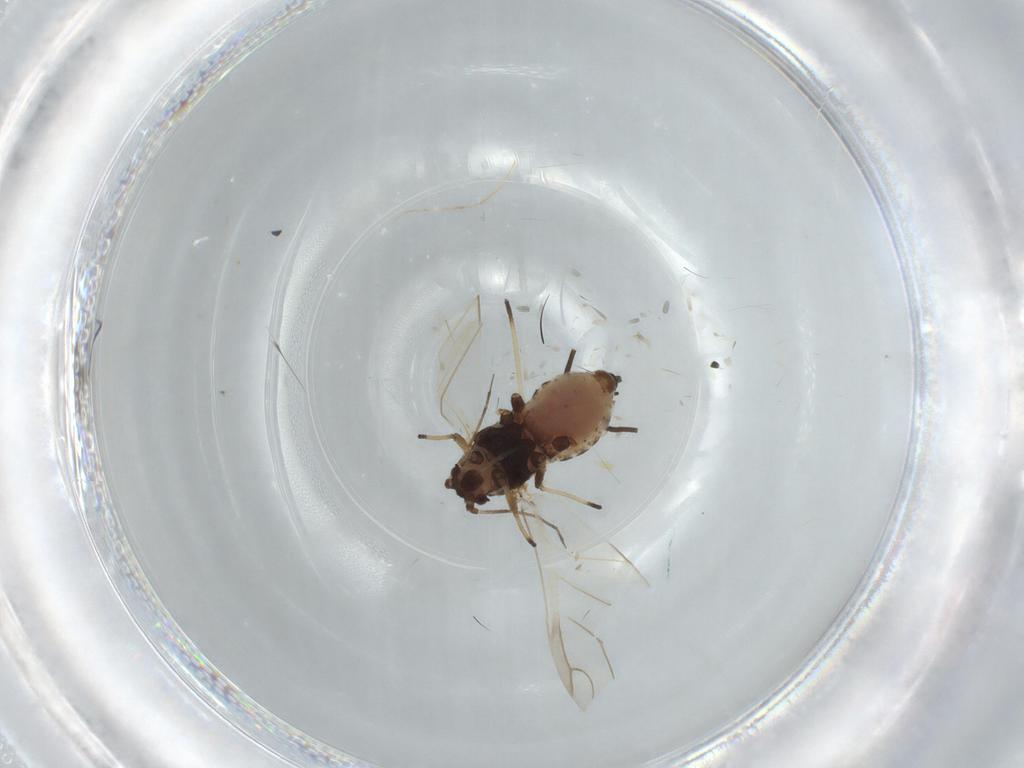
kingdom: Animalia
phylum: Arthropoda
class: Insecta
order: Hemiptera
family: Aphididae
